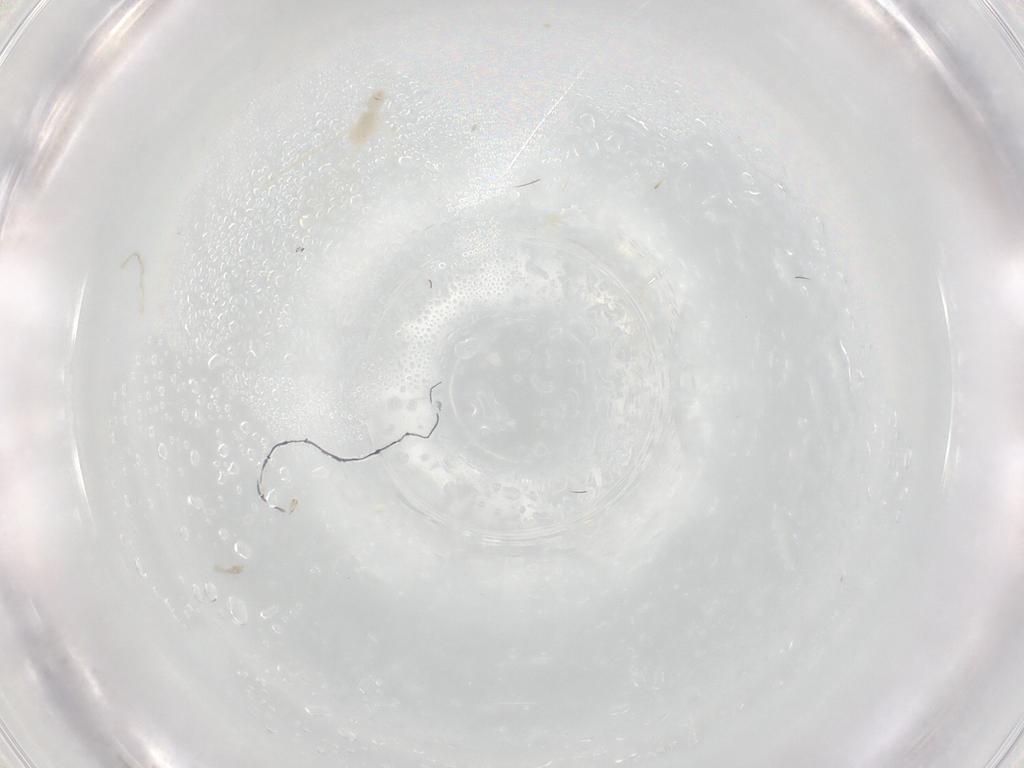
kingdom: Animalia
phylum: Arthropoda
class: Insecta
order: Diptera
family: Cecidomyiidae
